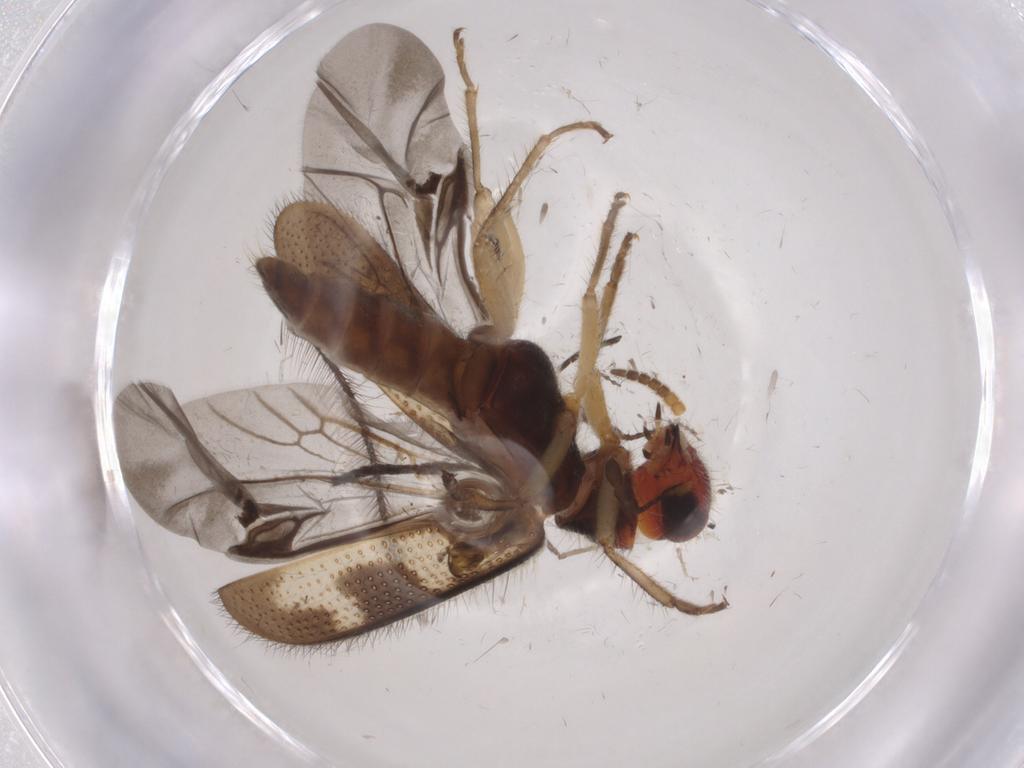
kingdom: Animalia
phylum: Arthropoda
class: Insecta
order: Coleoptera
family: Cleridae
